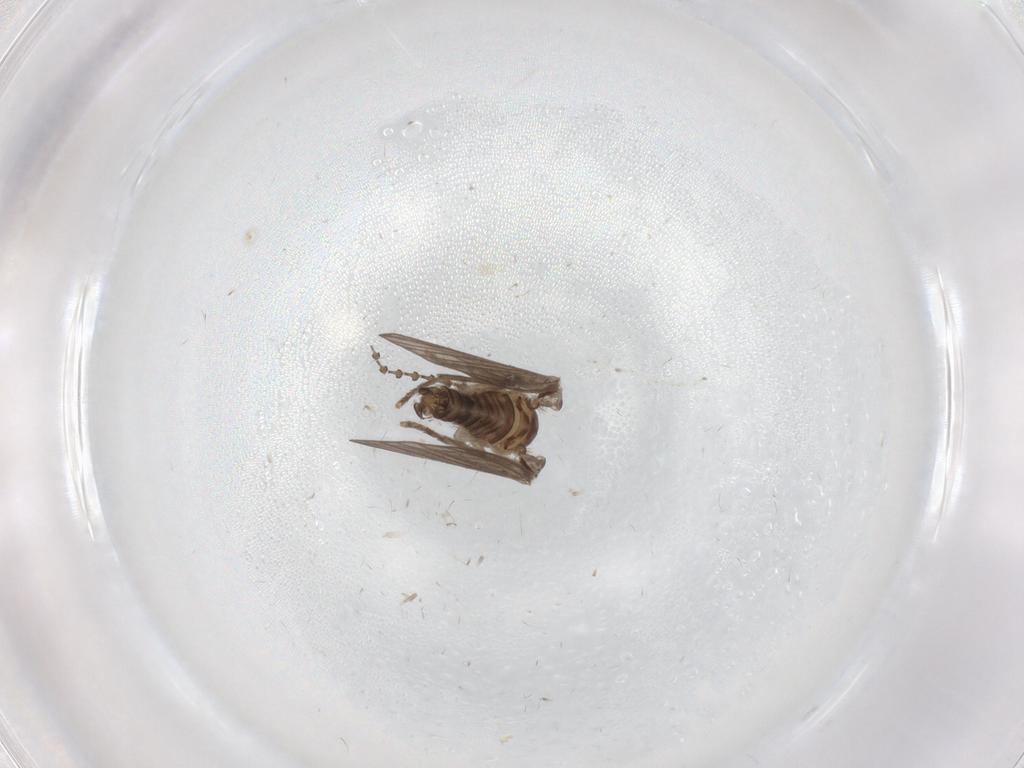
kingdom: Animalia
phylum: Arthropoda
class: Insecta
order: Diptera
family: Psychodidae
